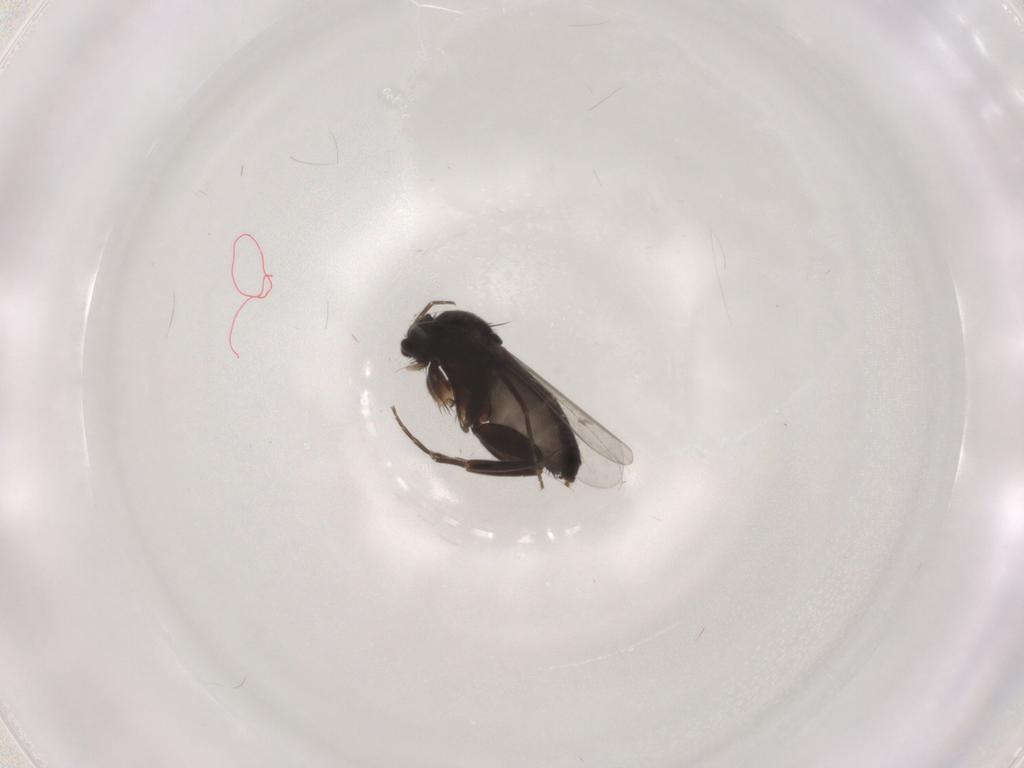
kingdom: Animalia
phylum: Arthropoda
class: Insecta
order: Diptera
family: Phoridae
